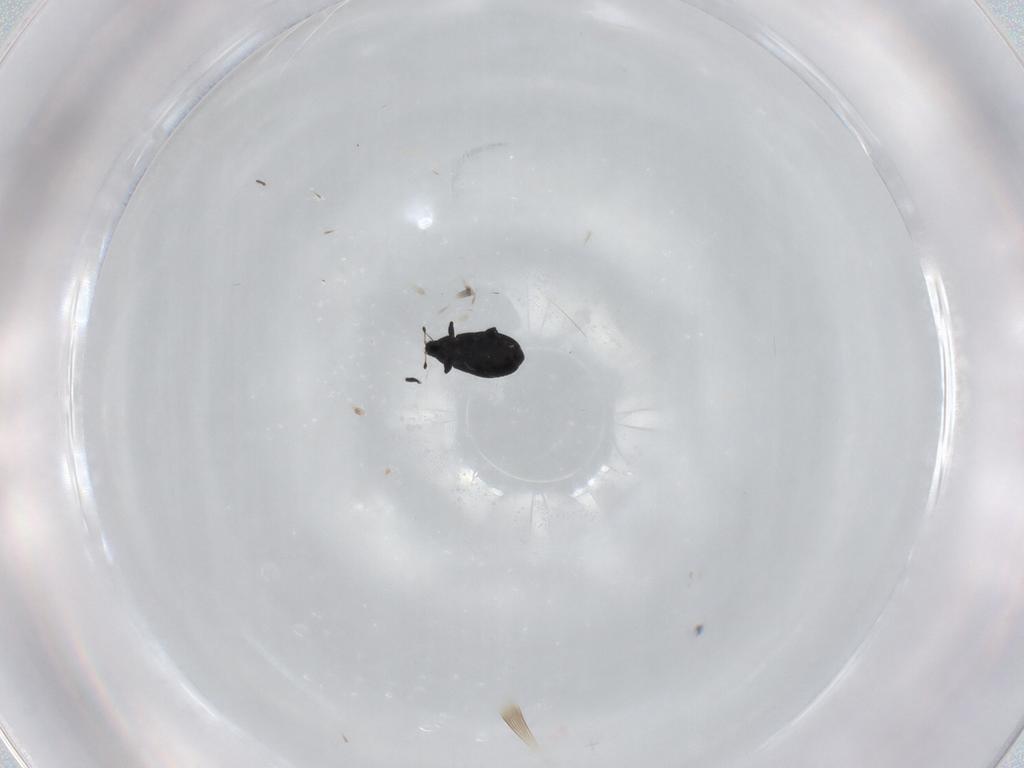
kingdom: Animalia
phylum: Arthropoda
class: Insecta
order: Coleoptera
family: Curculionidae
